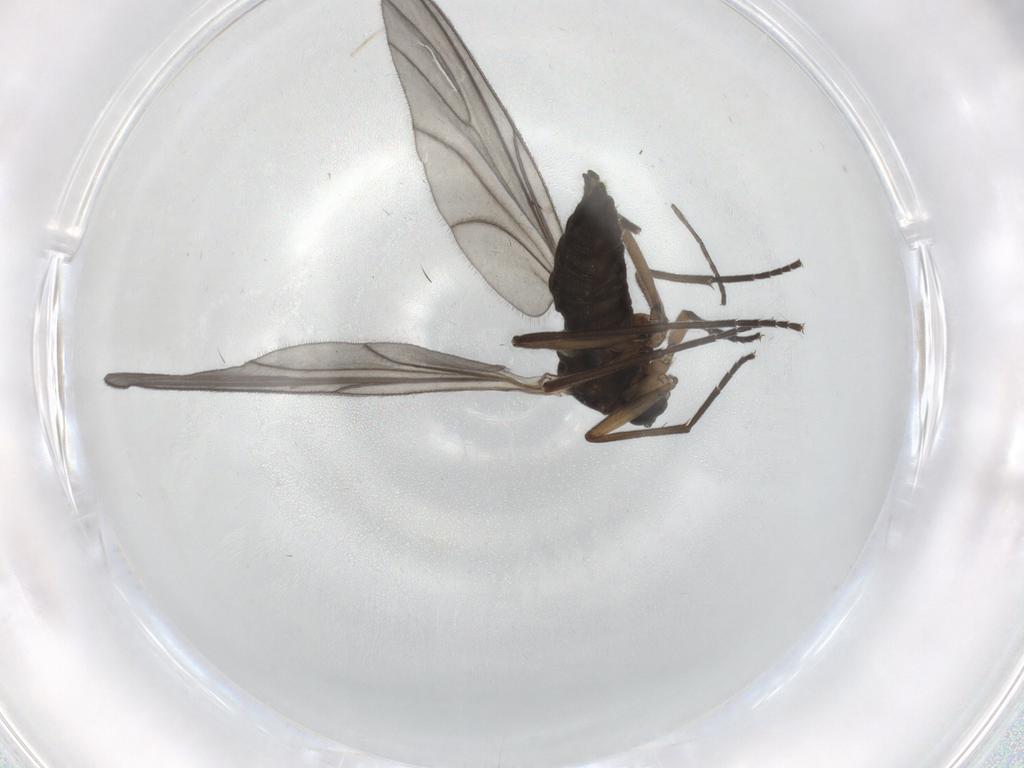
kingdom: Animalia
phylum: Arthropoda
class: Insecta
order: Diptera
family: Sciaridae
